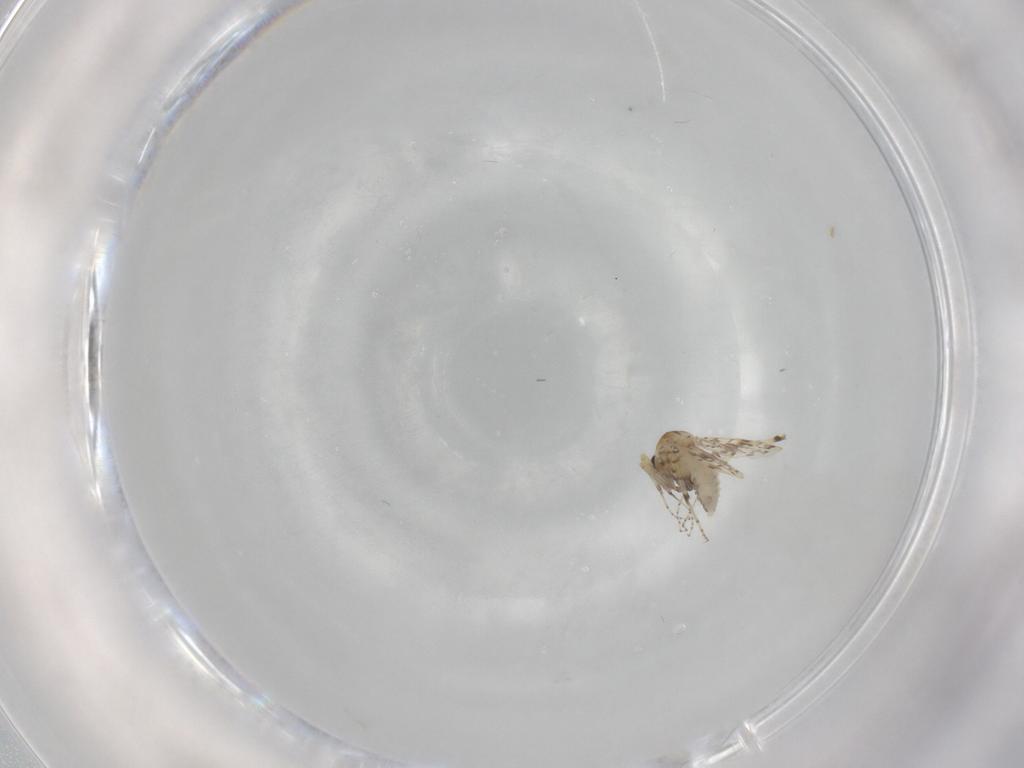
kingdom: Animalia
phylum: Arthropoda
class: Insecta
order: Diptera
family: Ceratopogonidae
